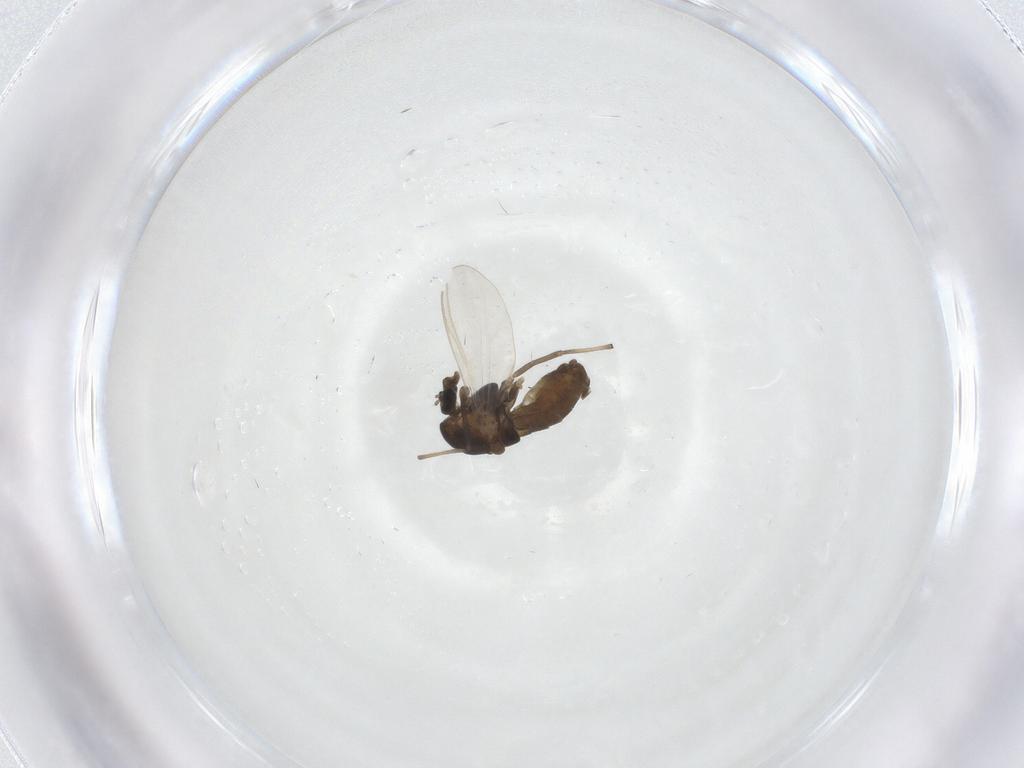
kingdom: Animalia
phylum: Arthropoda
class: Insecta
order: Diptera
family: Chironomidae
